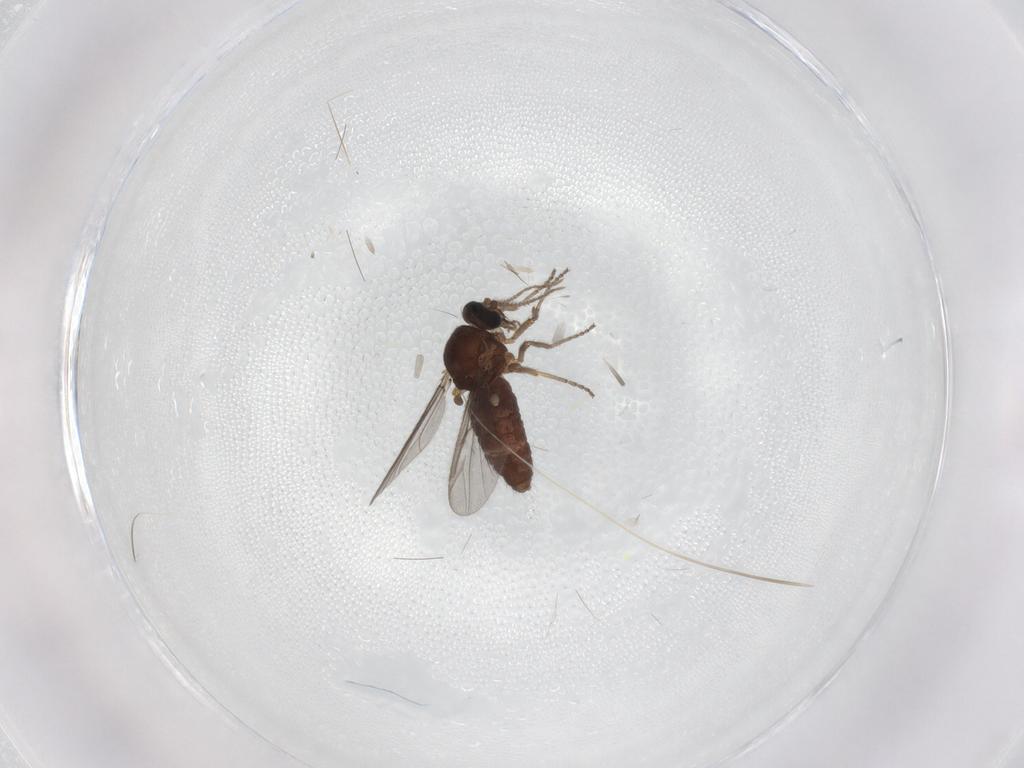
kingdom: Animalia
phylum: Arthropoda
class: Insecta
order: Diptera
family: Ceratopogonidae
